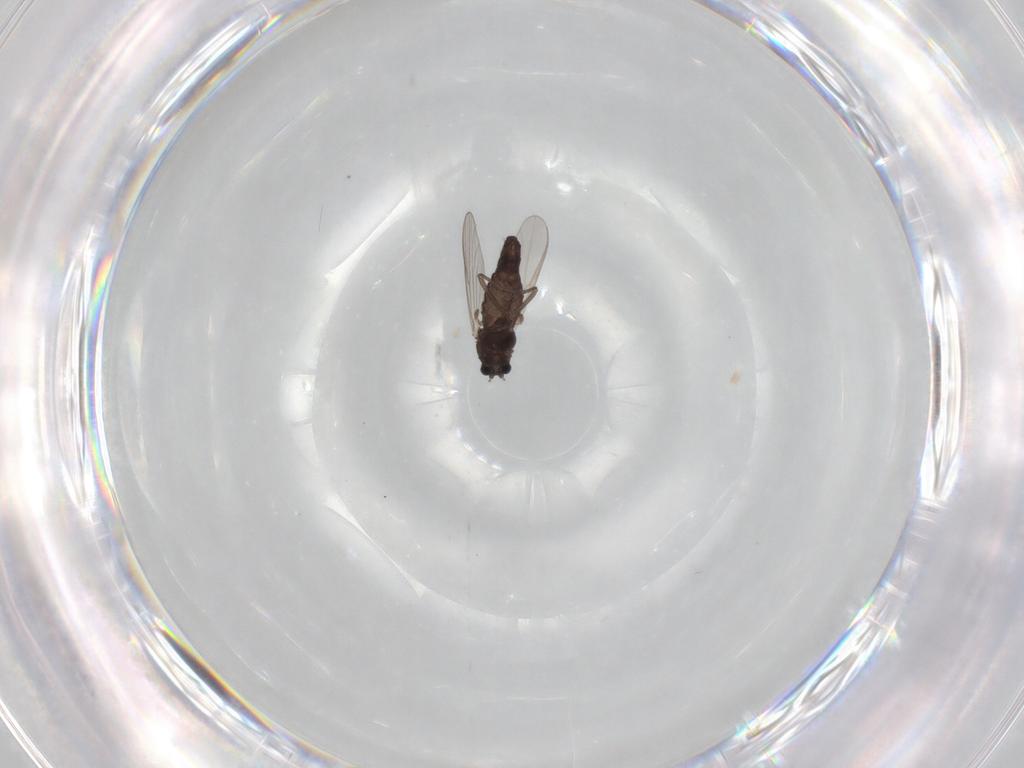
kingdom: Animalia
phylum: Arthropoda
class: Insecta
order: Diptera
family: Chironomidae
